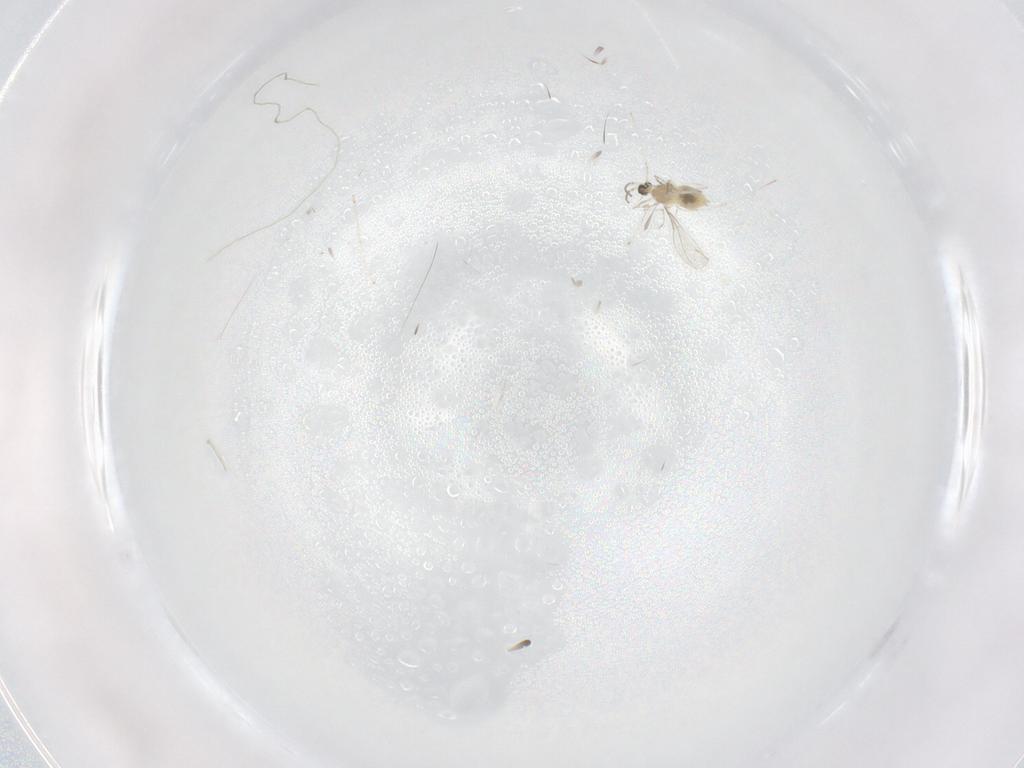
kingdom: Animalia
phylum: Arthropoda
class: Insecta
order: Diptera
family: Cecidomyiidae
